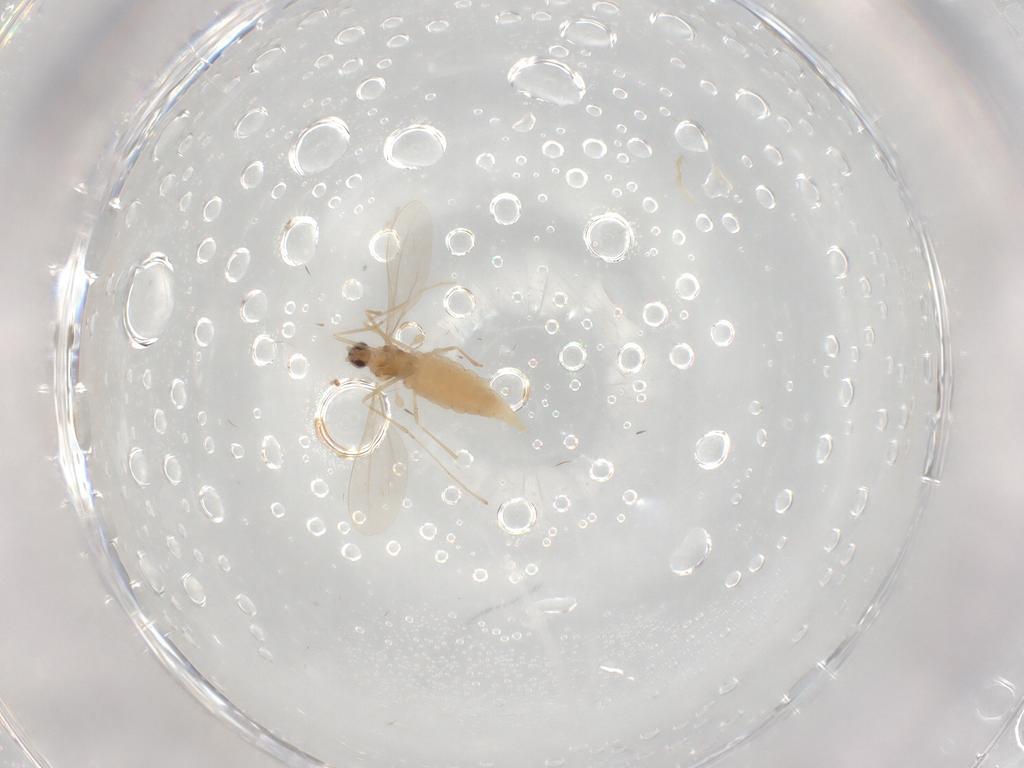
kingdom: Animalia
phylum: Arthropoda
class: Insecta
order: Diptera
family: Cecidomyiidae
